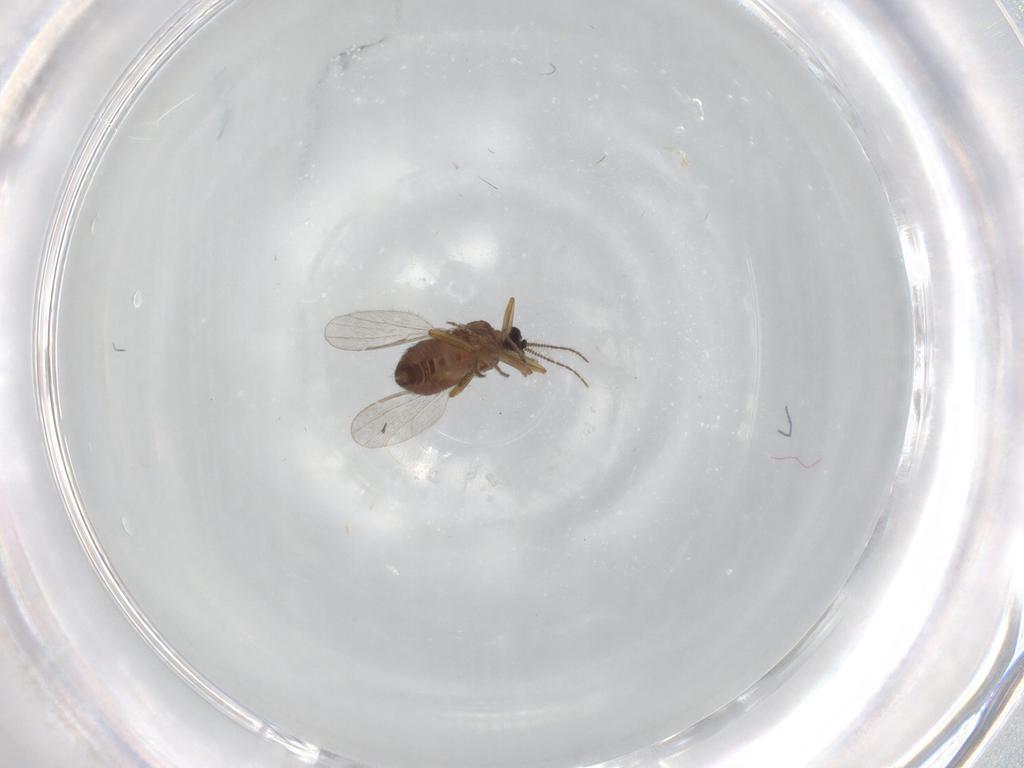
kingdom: Animalia
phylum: Arthropoda
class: Insecta
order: Diptera
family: Ceratopogonidae
